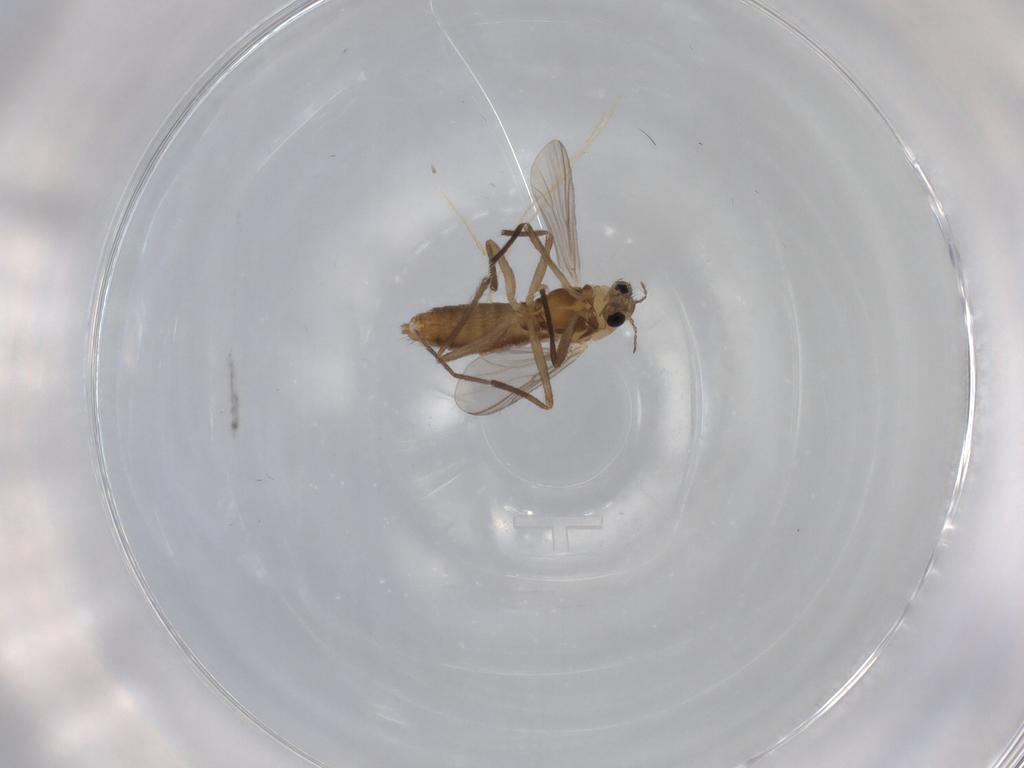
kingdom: Animalia
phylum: Arthropoda
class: Insecta
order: Diptera
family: Chironomidae
